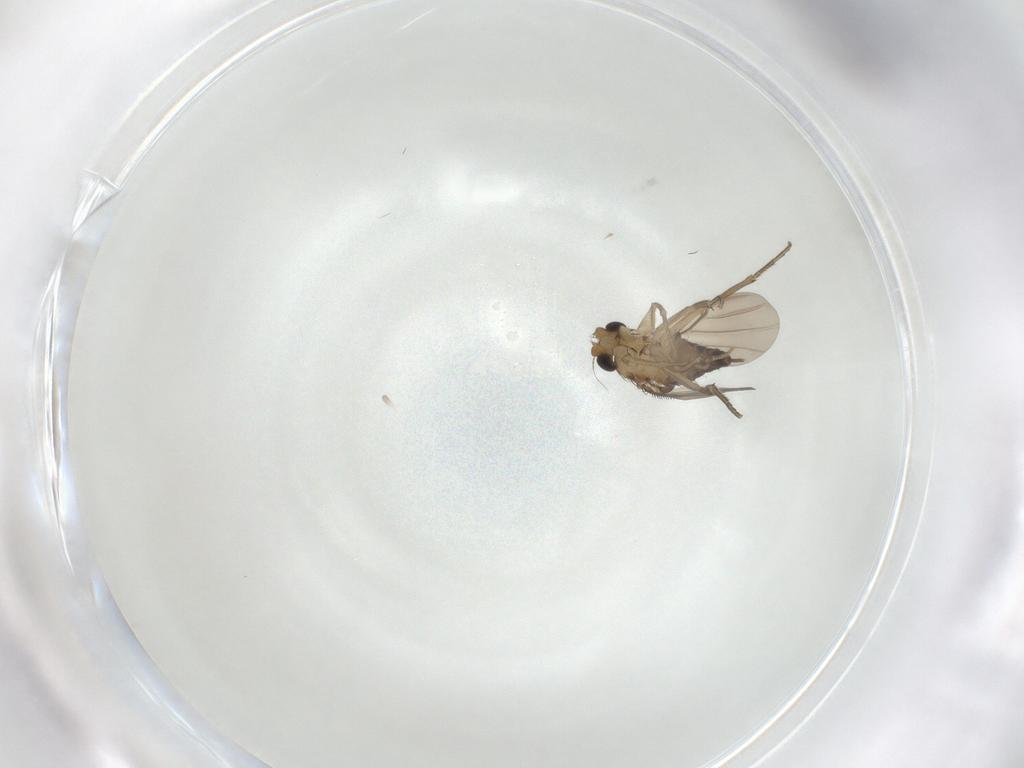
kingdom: Animalia
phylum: Arthropoda
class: Insecta
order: Diptera
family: Phoridae
